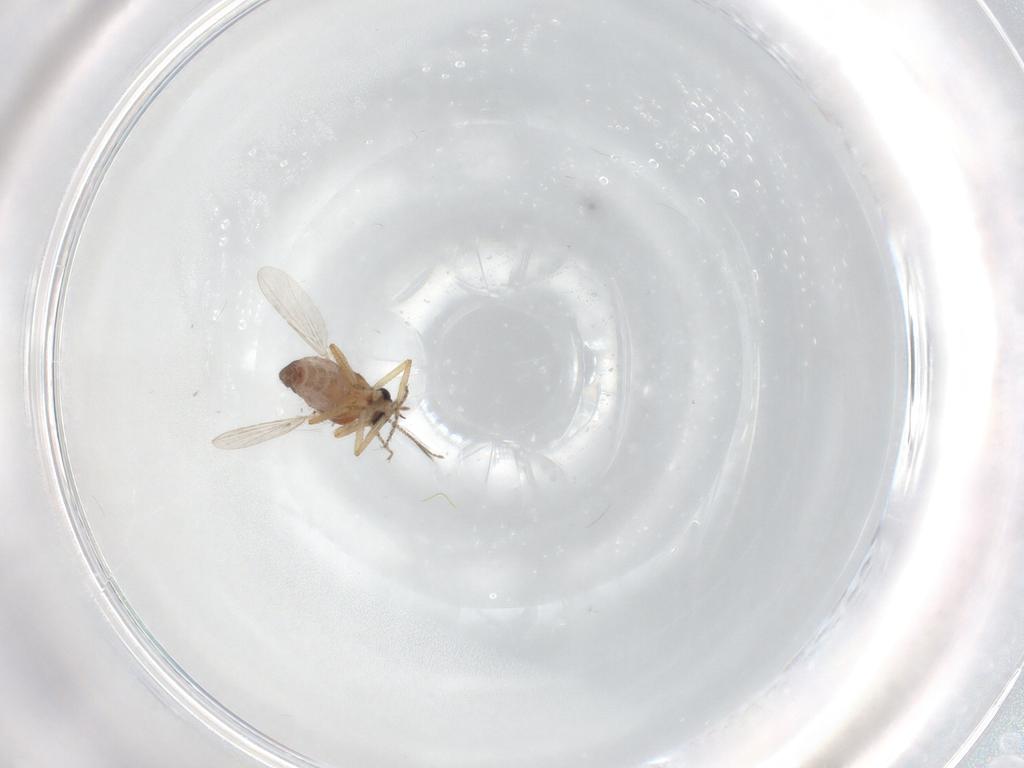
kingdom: Animalia
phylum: Arthropoda
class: Insecta
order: Diptera
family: Ceratopogonidae
